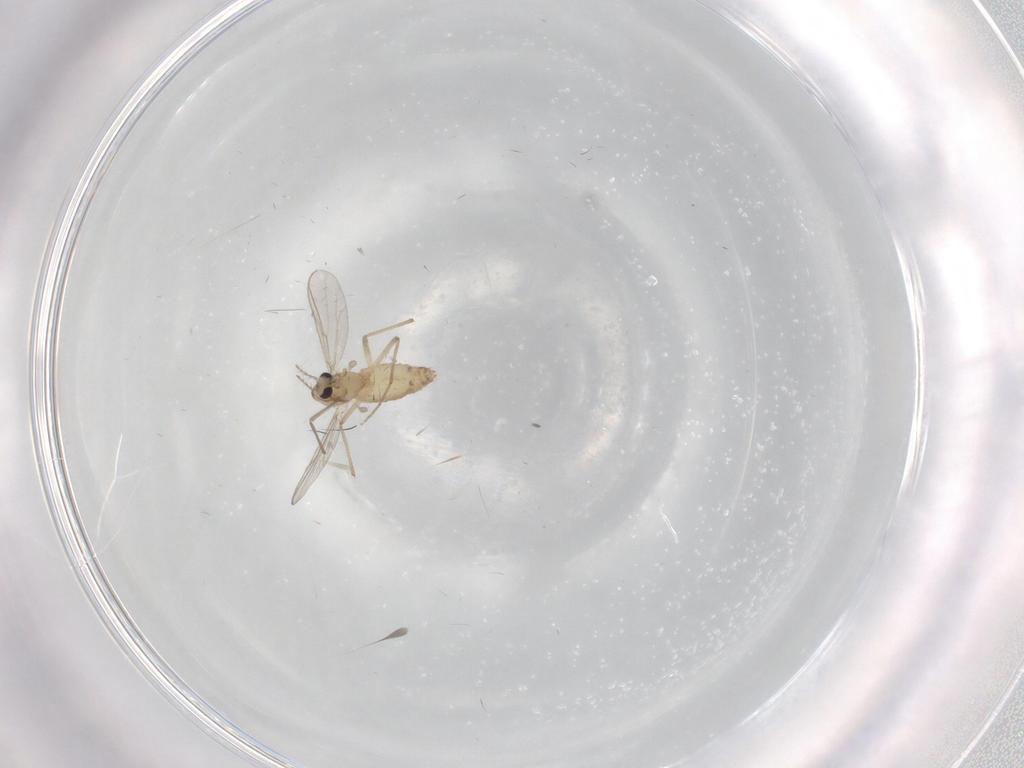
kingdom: Animalia
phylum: Arthropoda
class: Insecta
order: Diptera
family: Chironomidae
